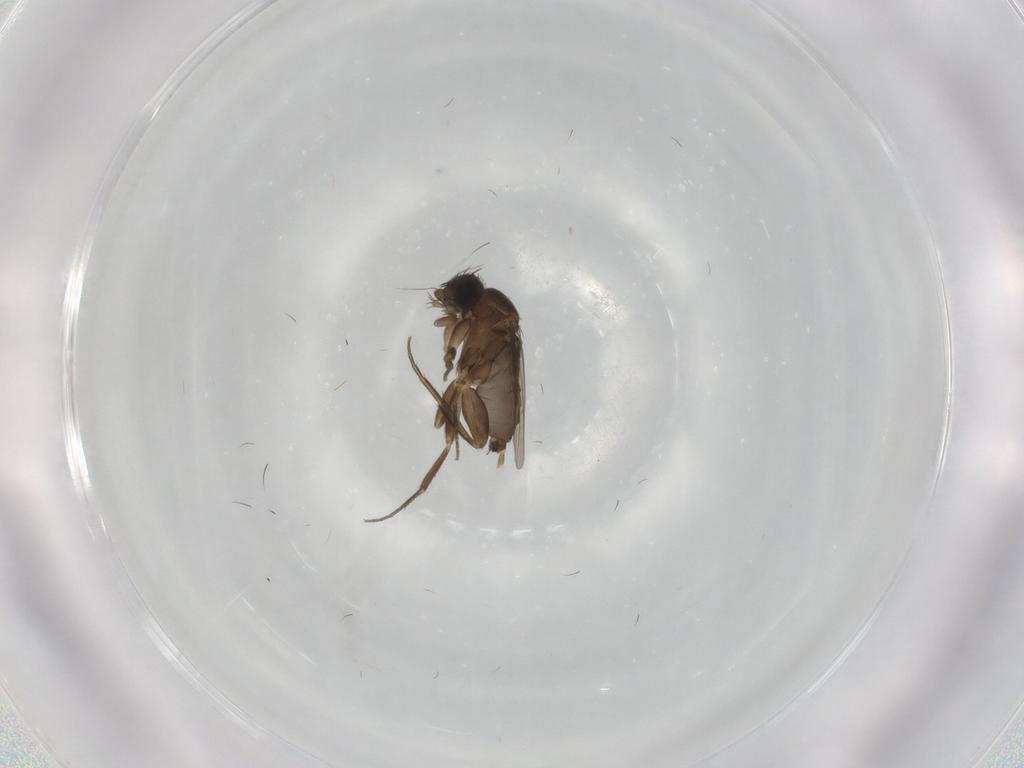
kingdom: Animalia
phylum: Arthropoda
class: Insecta
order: Diptera
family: Phoridae
